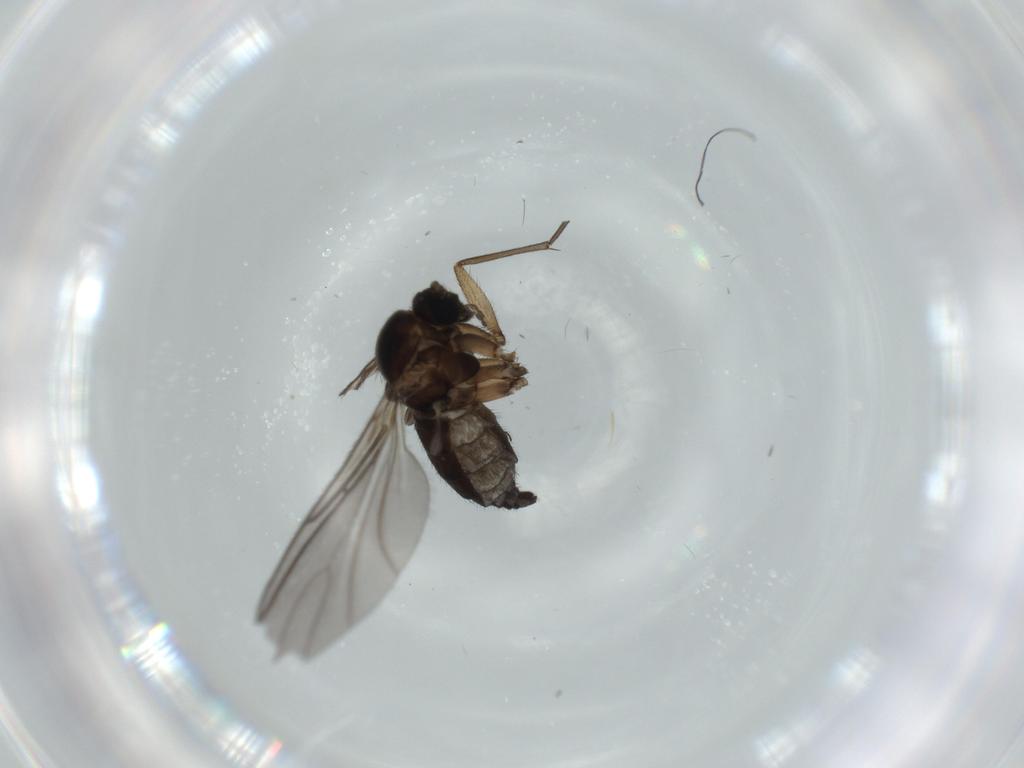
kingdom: Animalia
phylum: Arthropoda
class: Insecta
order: Diptera
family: Sciaridae
